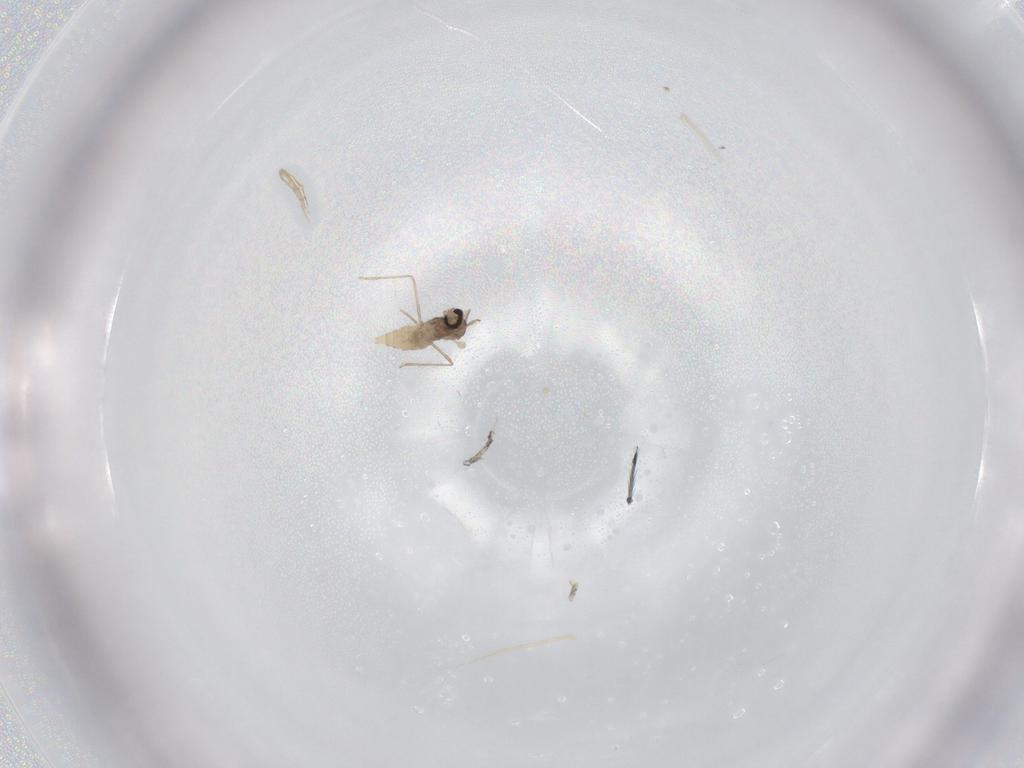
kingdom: Animalia
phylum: Arthropoda
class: Insecta
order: Diptera
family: Cecidomyiidae
